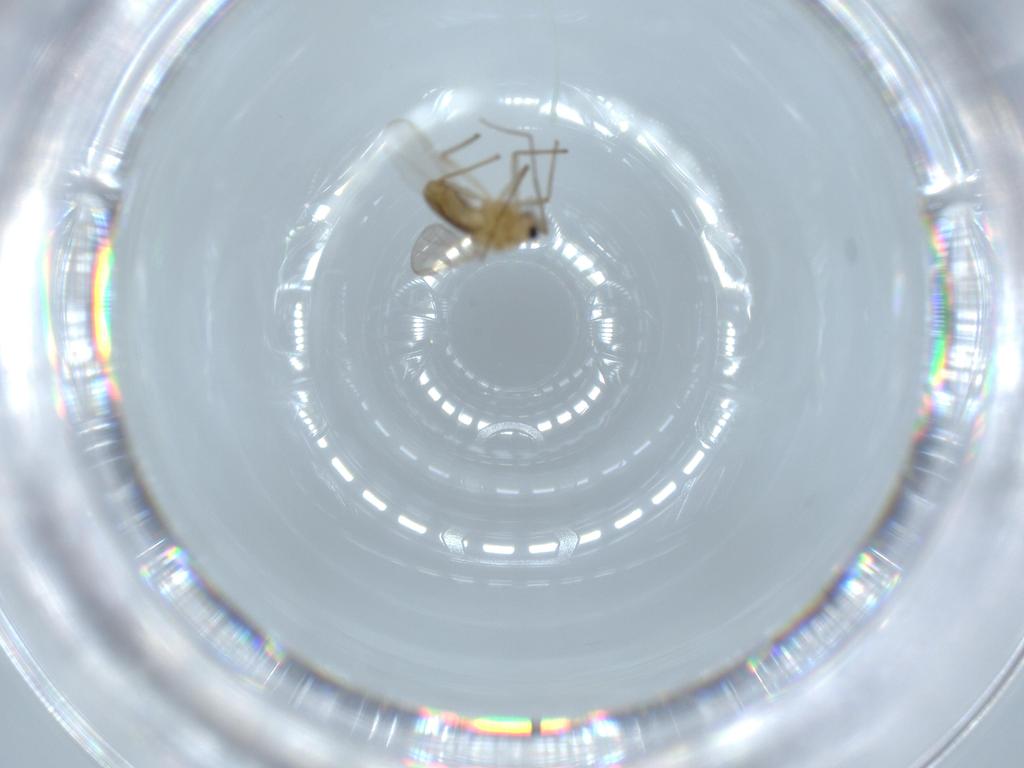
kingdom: Animalia
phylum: Arthropoda
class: Insecta
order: Diptera
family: Chironomidae
